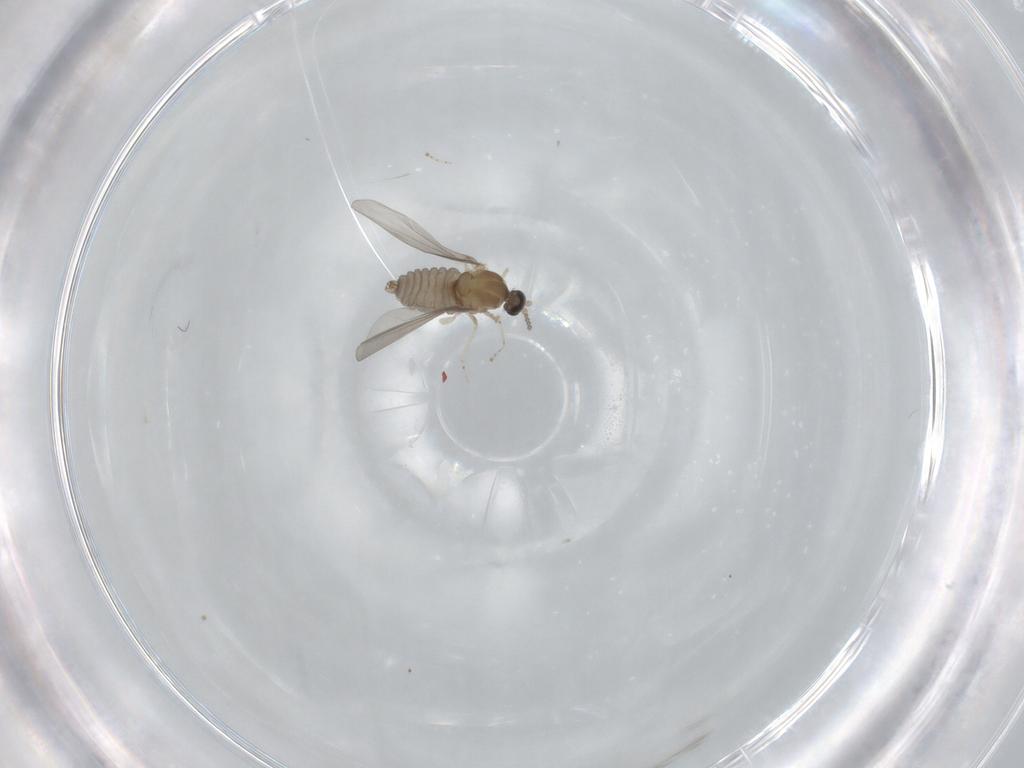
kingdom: Animalia
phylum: Arthropoda
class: Insecta
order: Diptera
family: Cecidomyiidae
